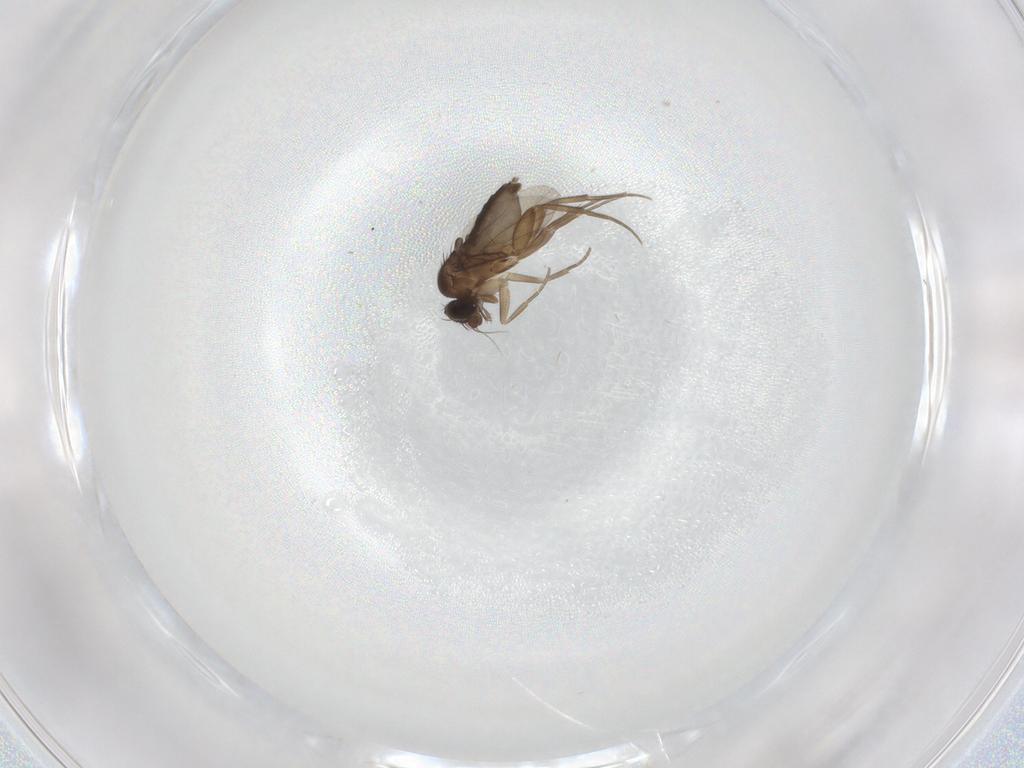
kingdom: Animalia
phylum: Arthropoda
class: Insecta
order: Diptera
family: Phoridae
